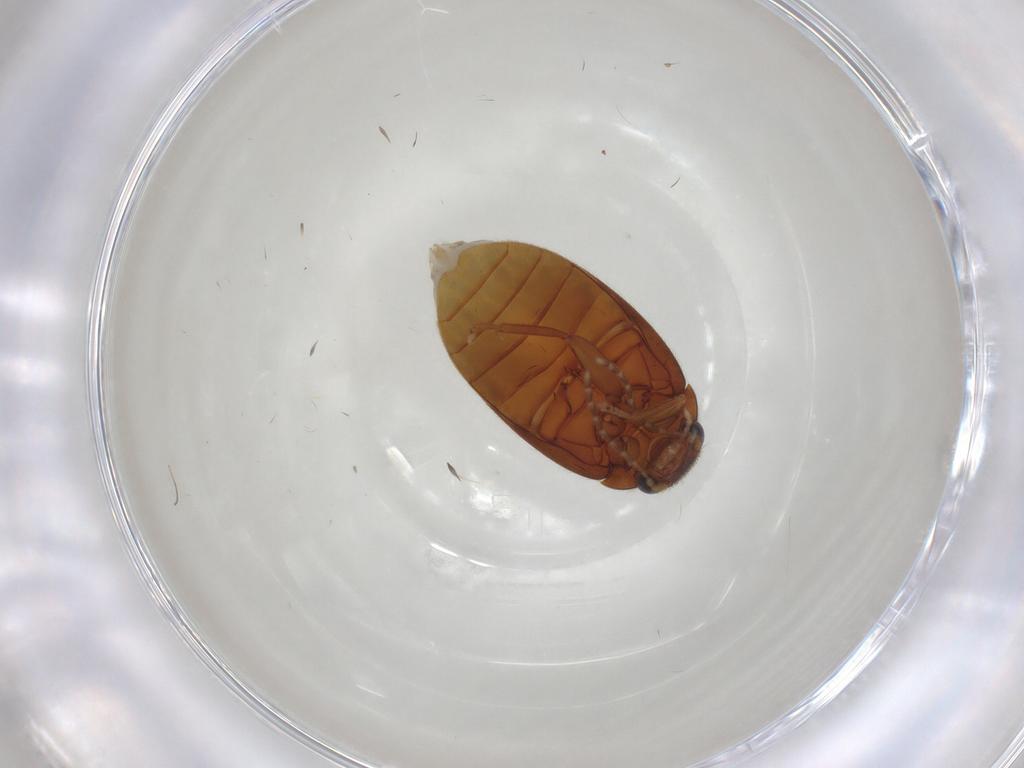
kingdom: Animalia
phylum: Arthropoda
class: Insecta
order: Coleoptera
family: Scirtidae
